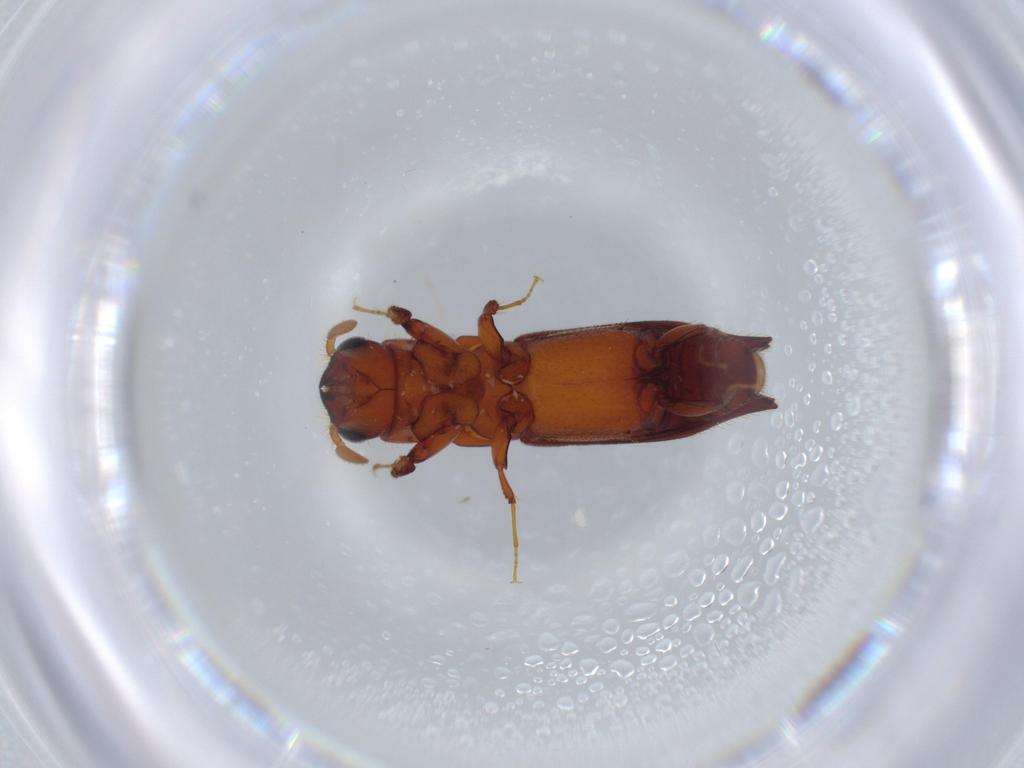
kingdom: Animalia
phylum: Arthropoda
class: Insecta
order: Coleoptera
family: Curculionidae
